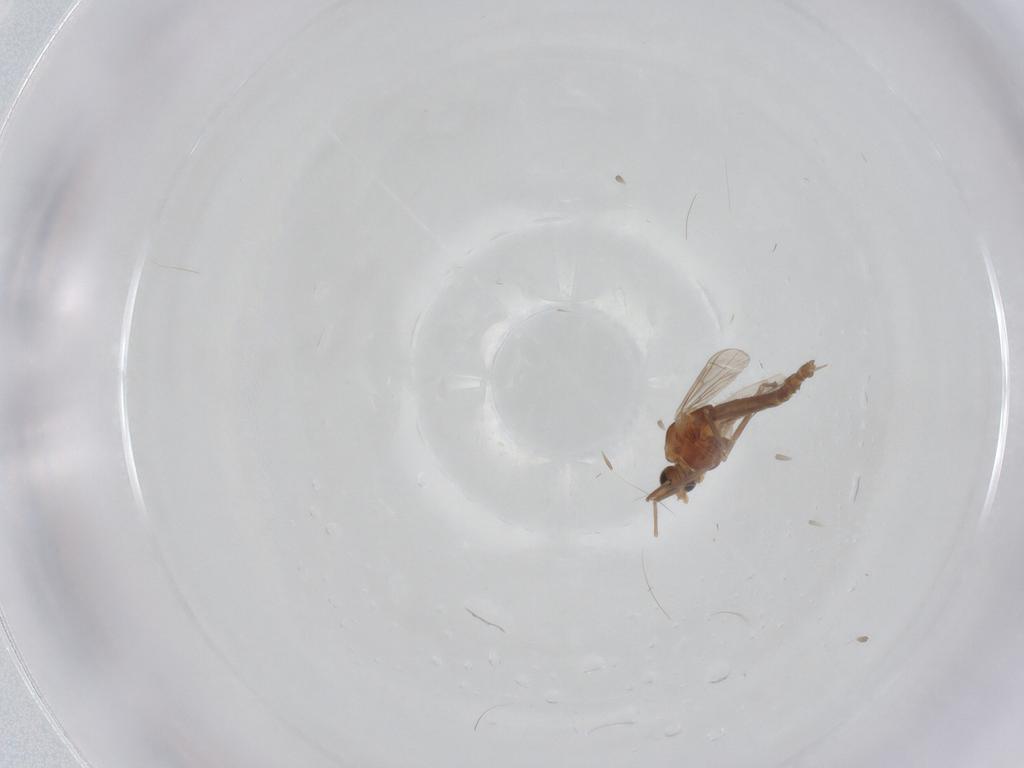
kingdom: Animalia
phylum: Arthropoda
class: Insecta
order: Diptera
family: Chironomidae
